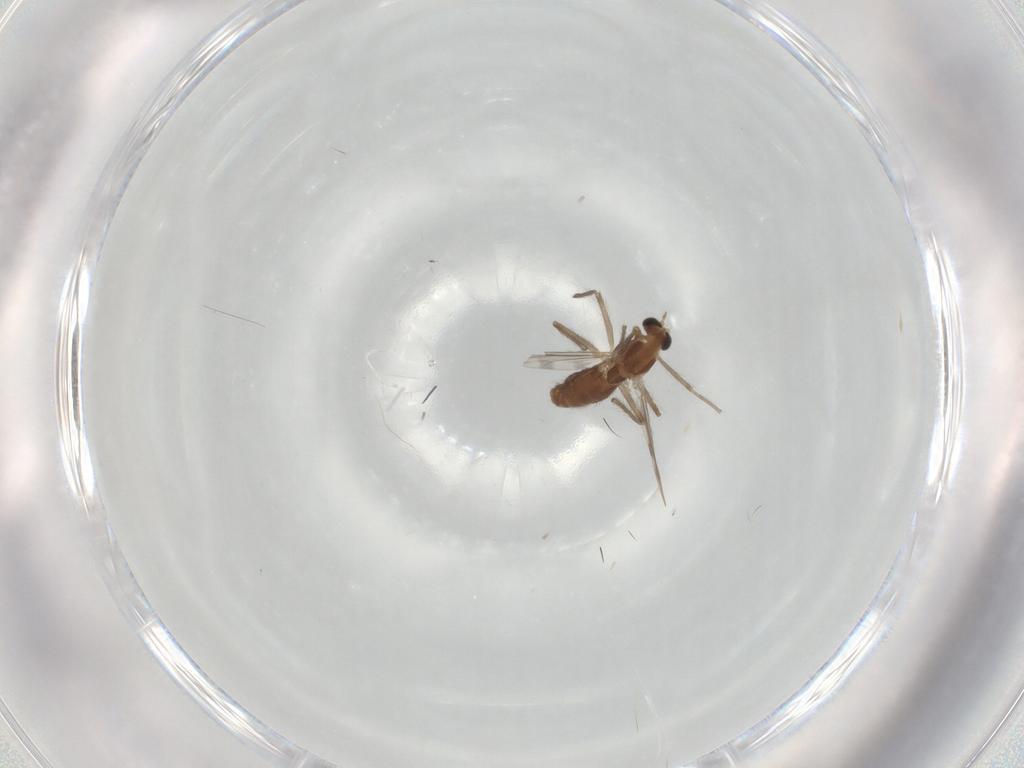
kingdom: Animalia
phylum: Arthropoda
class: Insecta
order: Diptera
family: Chironomidae
